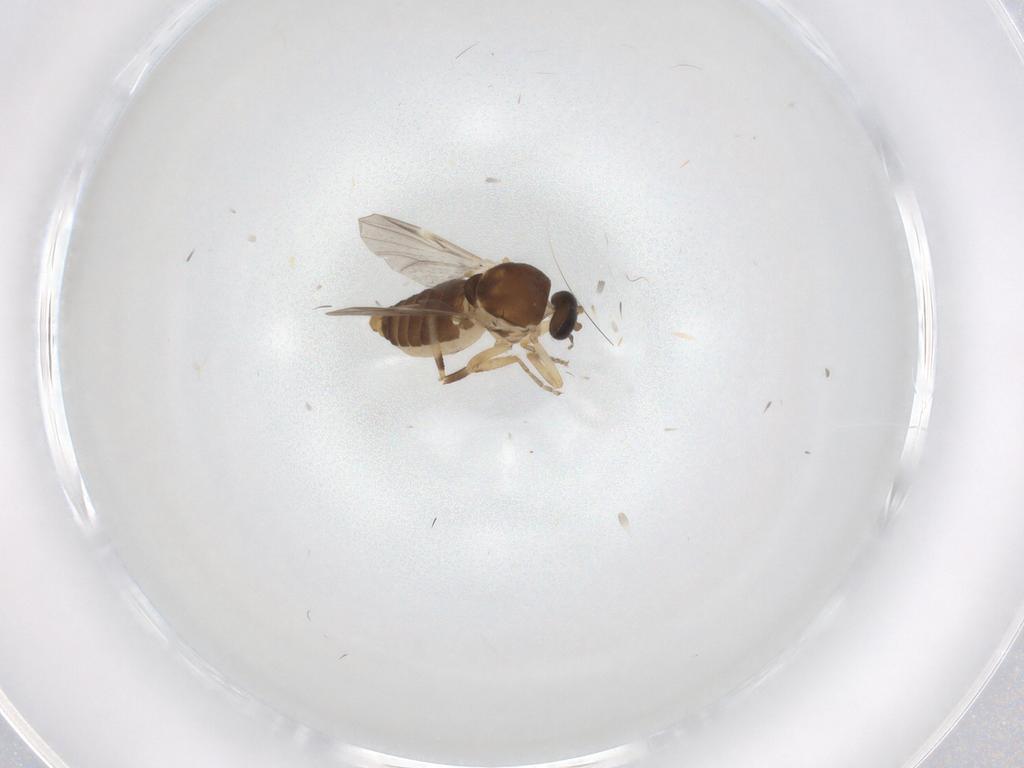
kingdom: Animalia
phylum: Arthropoda
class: Insecta
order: Diptera
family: Ceratopogonidae
